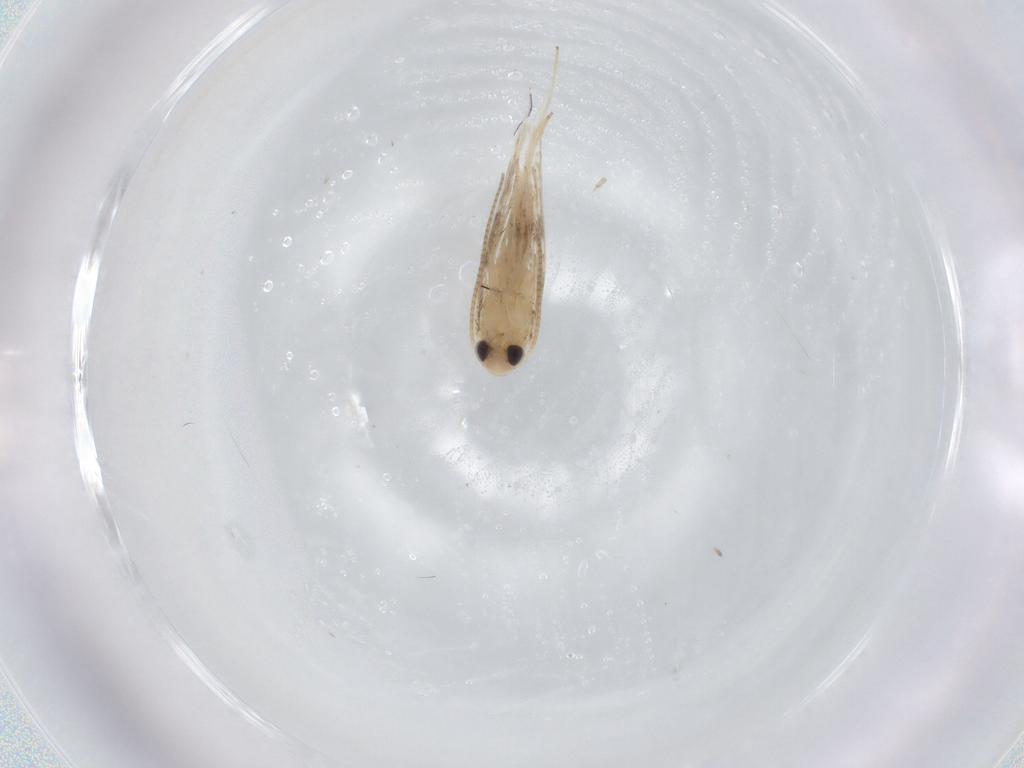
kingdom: Animalia
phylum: Arthropoda
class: Insecta
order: Lepidoptera
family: Gracillariidae
